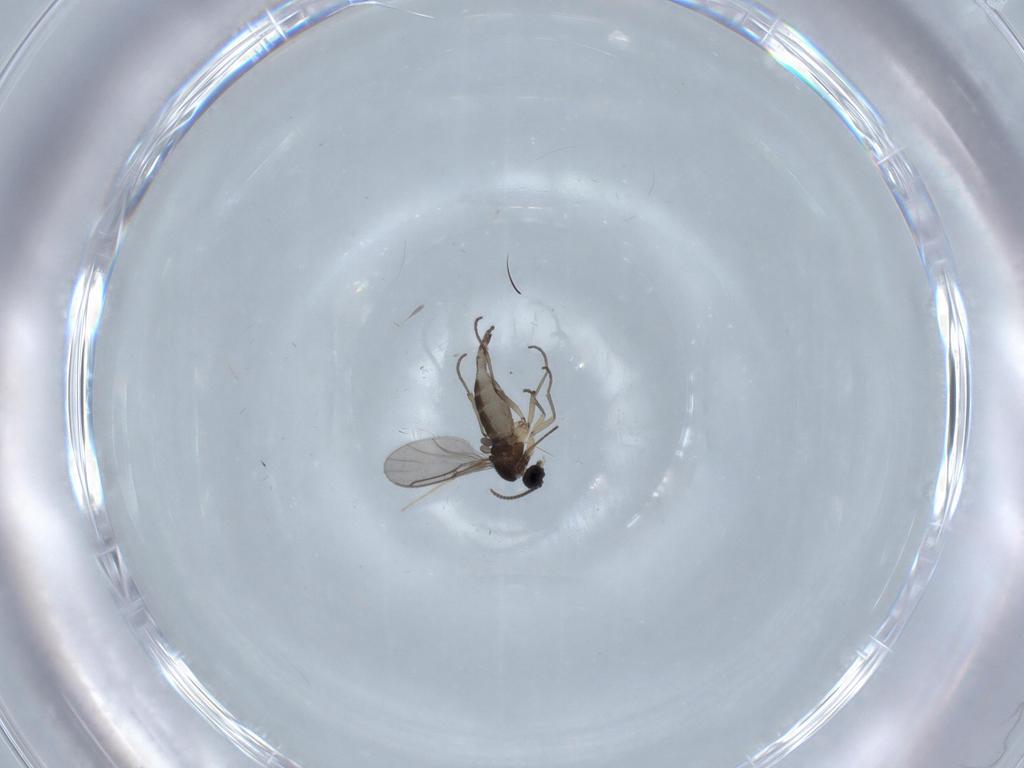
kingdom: Animalia
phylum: Arthropoda
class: Insecta
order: Diptera
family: Sciaridae
